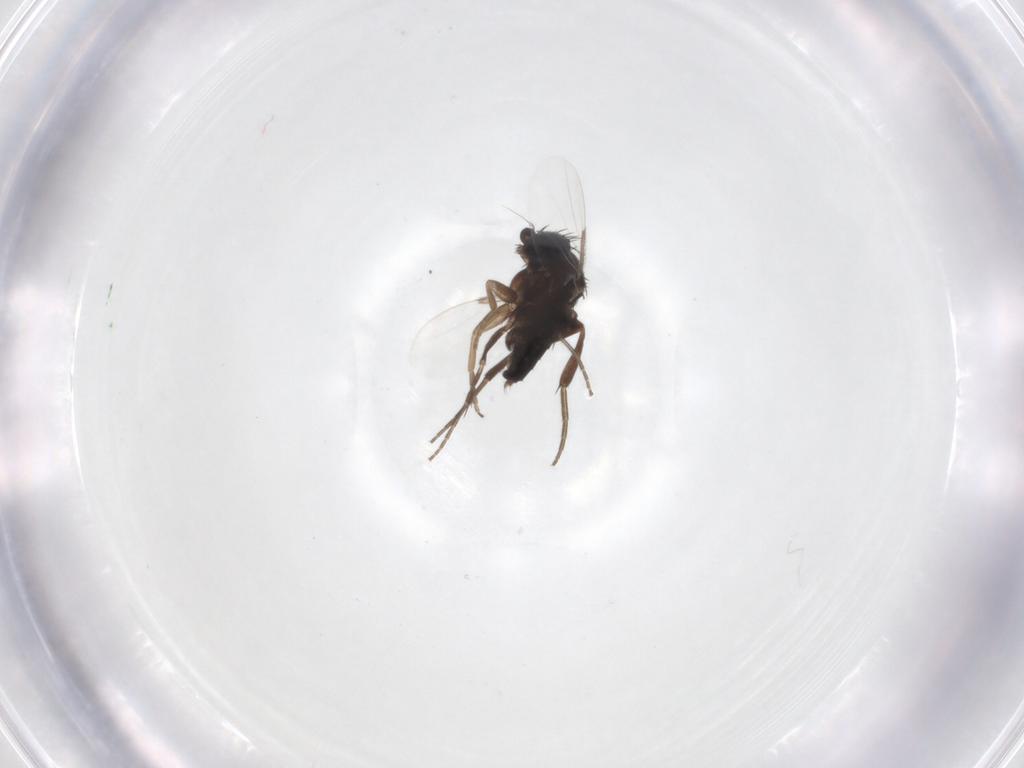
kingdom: Animalia
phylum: Arthropoda
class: Insecta
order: Diptera
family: Phoridae
